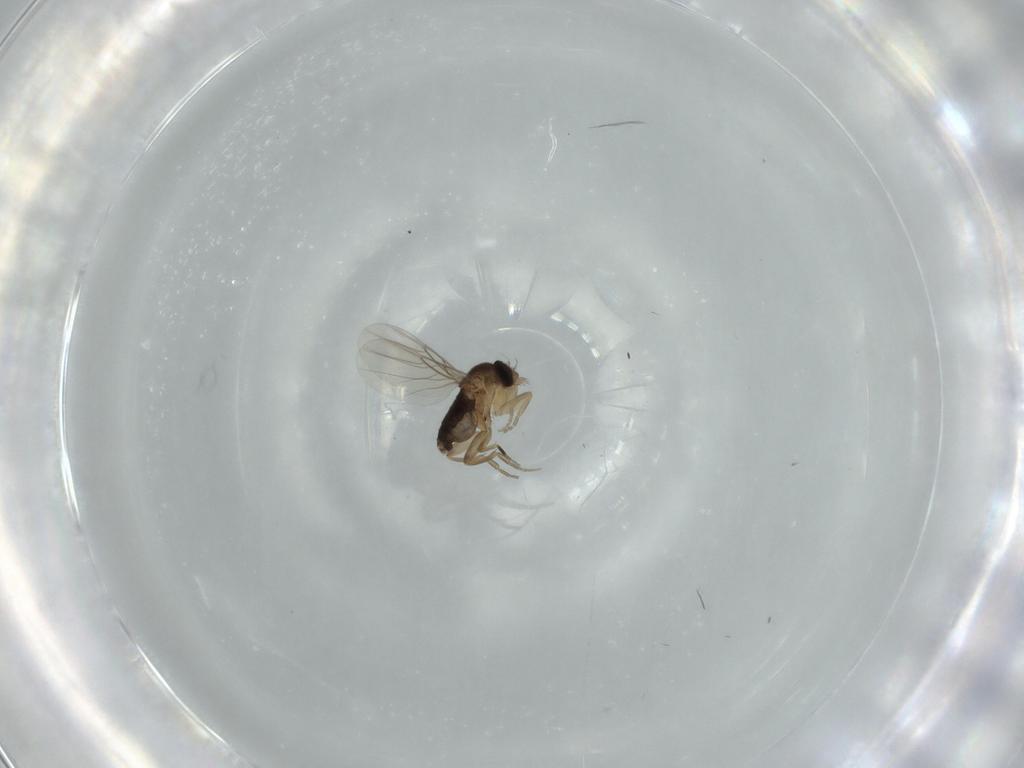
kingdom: Animalia
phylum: Arthropoda
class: Insecta
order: Diptera
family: Phoridae
